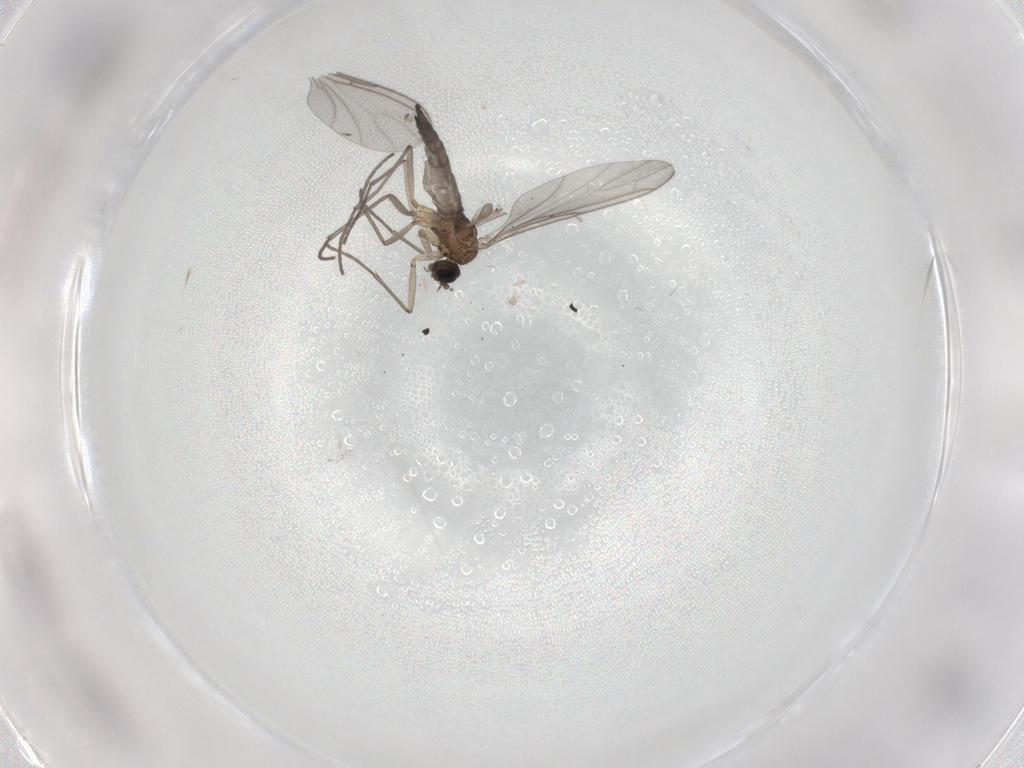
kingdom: Animalia
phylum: Arthropoda
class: Insecta
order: Diptera
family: Sciaridae
